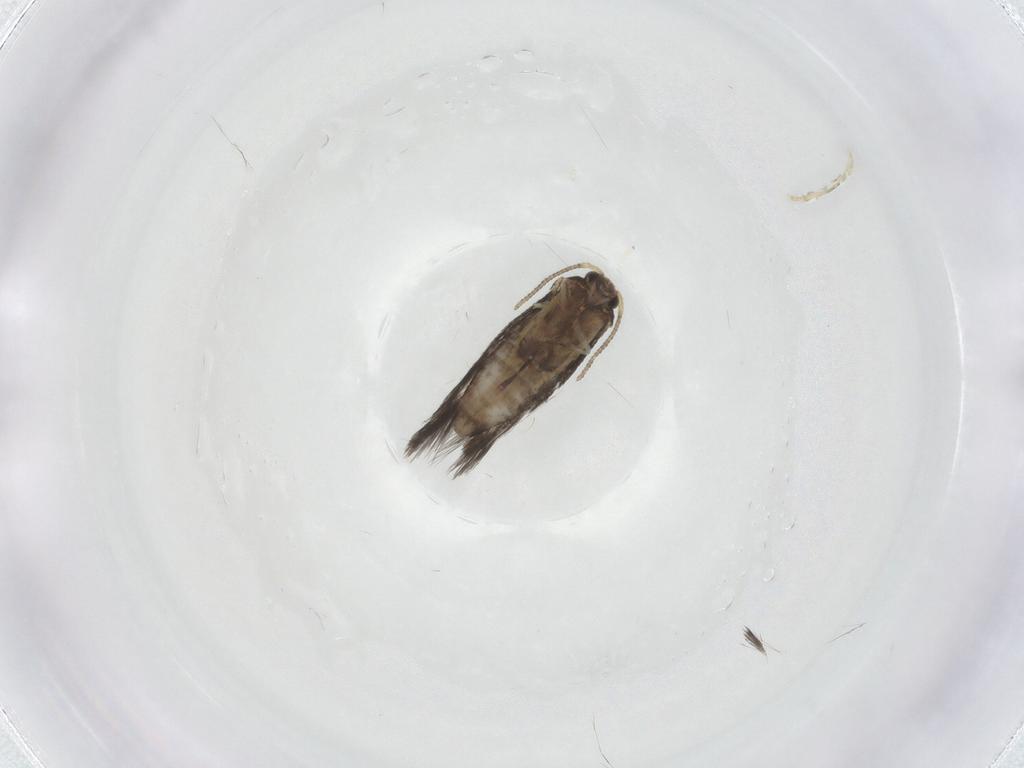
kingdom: Animalia
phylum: Arthropoda
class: Insecta
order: Lepidoptera
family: Nepticulidae
